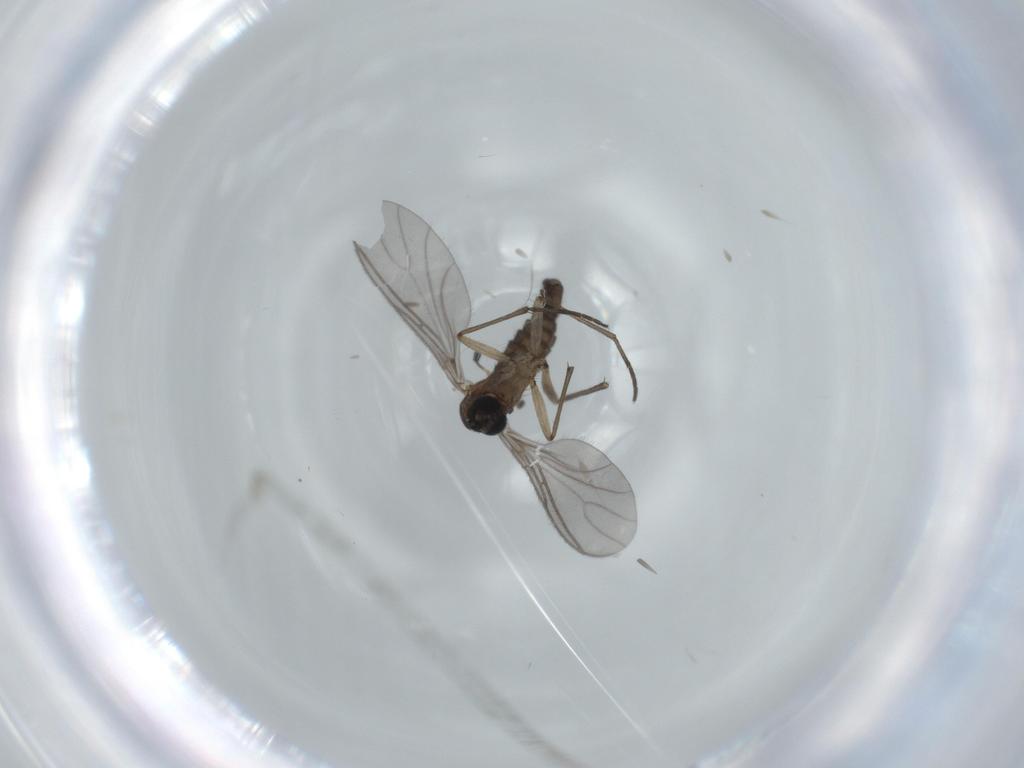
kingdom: Animalia
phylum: Arthropoda
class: Insecta
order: Diptera
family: Sciaridae
